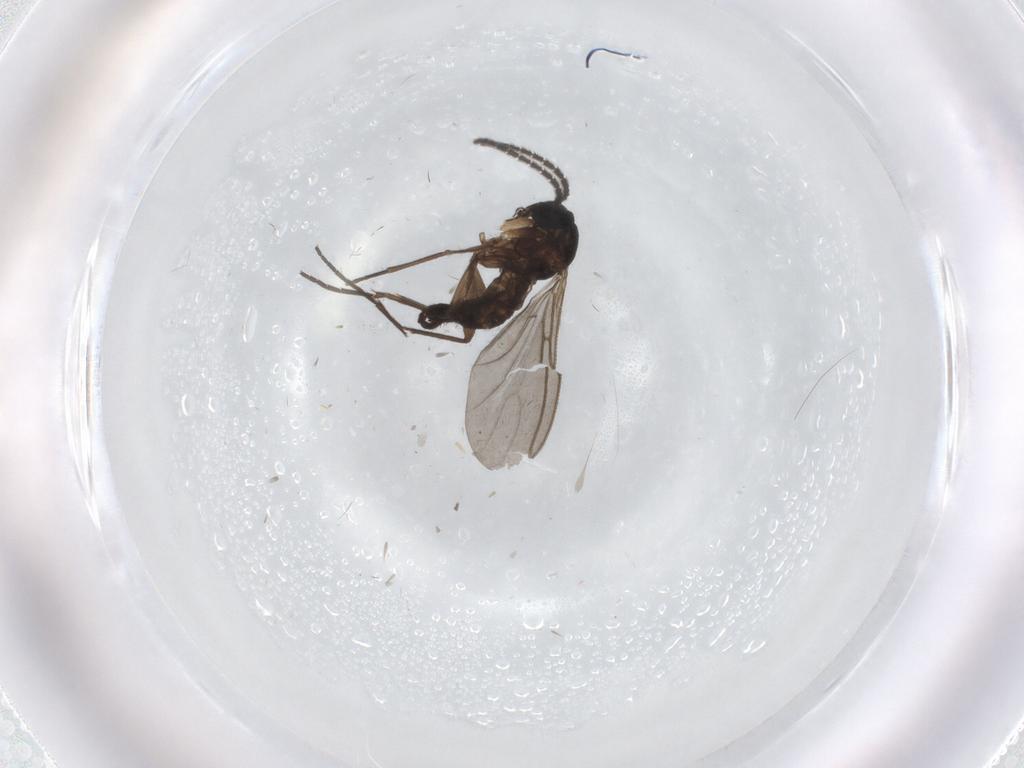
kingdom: Animalia
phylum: Arthropoda
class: Insecta
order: Diptera
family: Sciaridae
